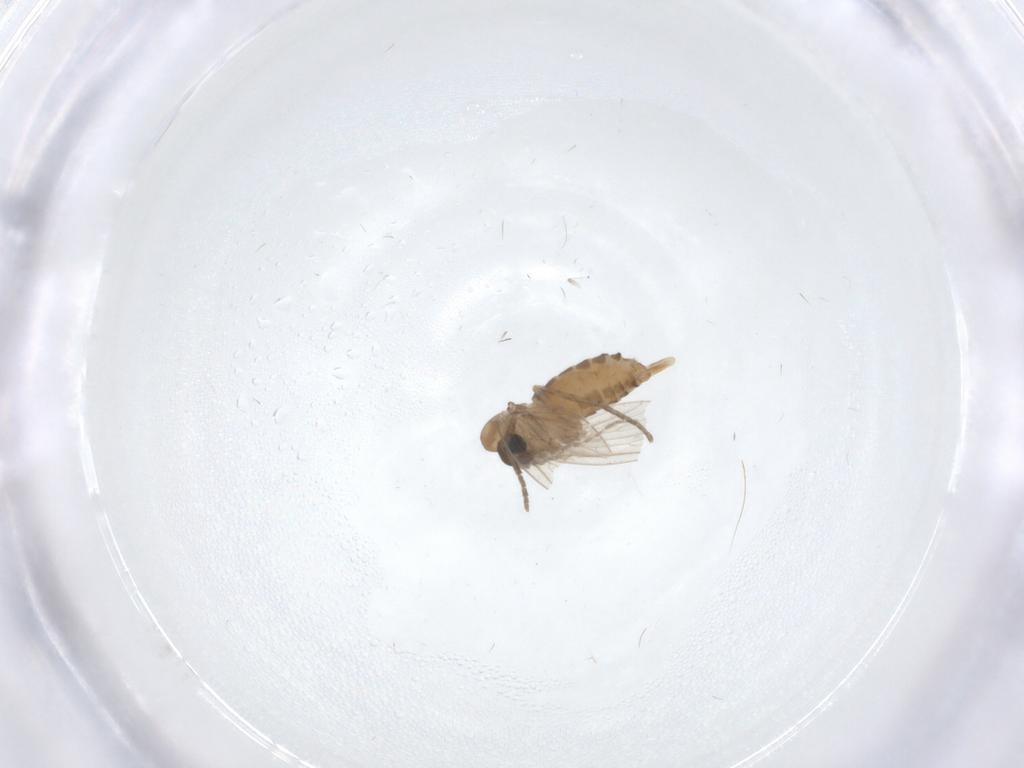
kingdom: Animalia
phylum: Arthropoda
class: Insecta
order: Diptera
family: Psychodidae
